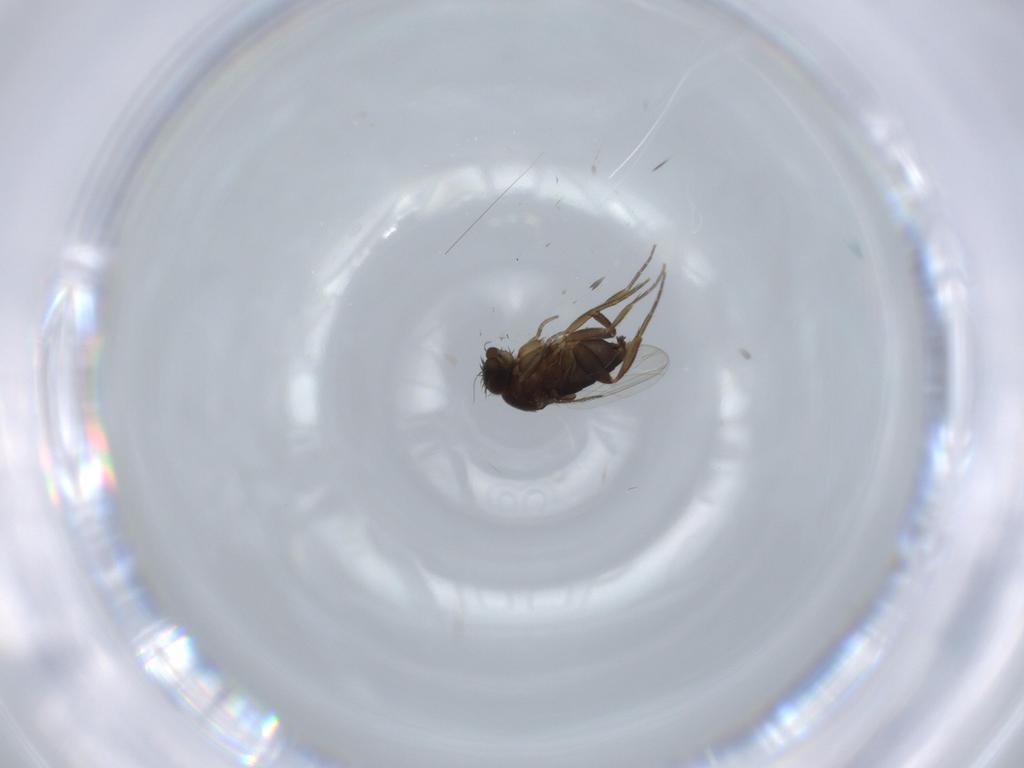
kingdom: Animalia
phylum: Arthropoda
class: Insecta
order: Diptera
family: Phoridae
